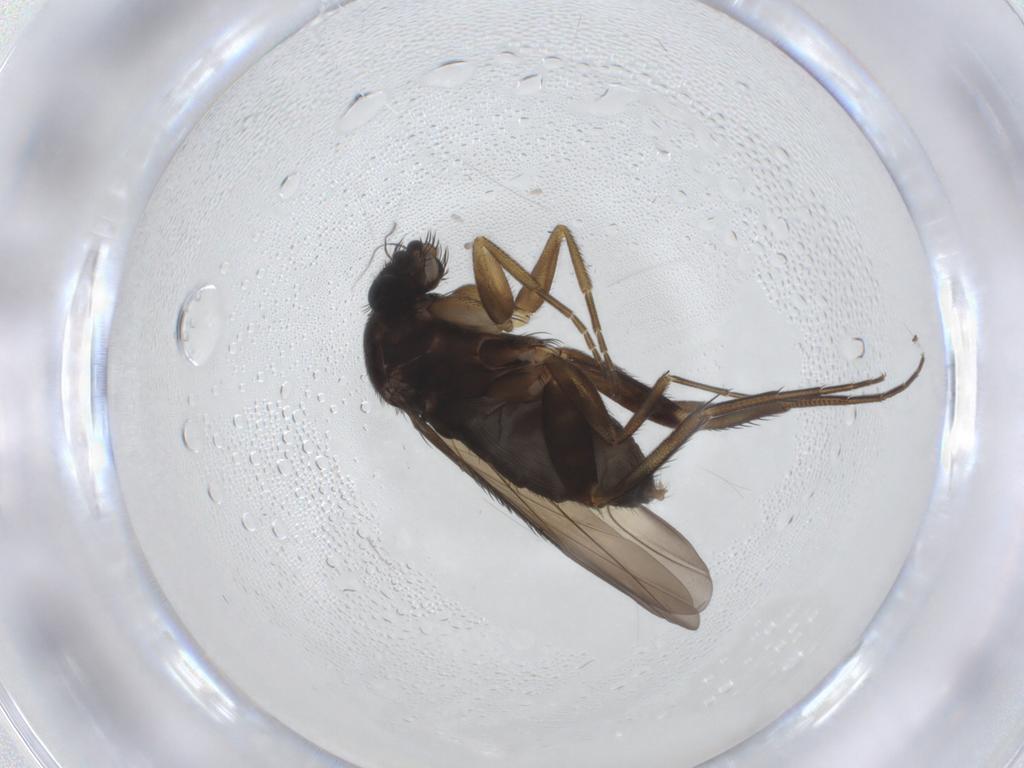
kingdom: Animalia
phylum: Arthropoda
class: Insecta
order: Diptera
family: Phoridae
